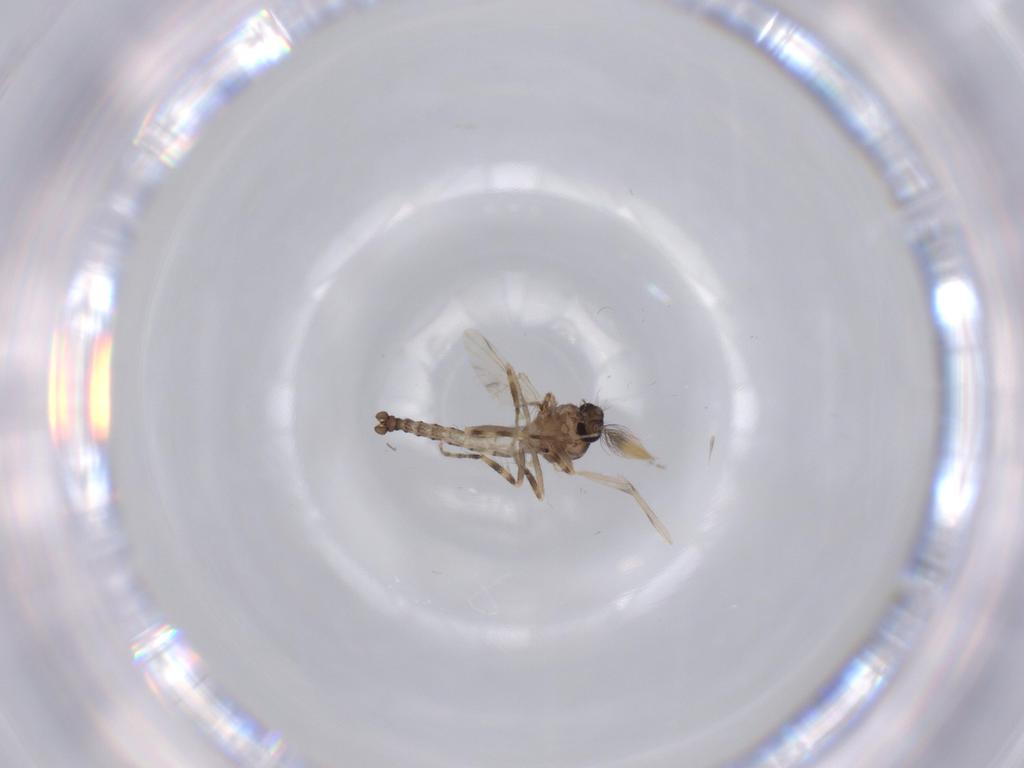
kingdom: Animalia
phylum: Arthropoda
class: Insecta
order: Diptera
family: Ceratopogonidae
